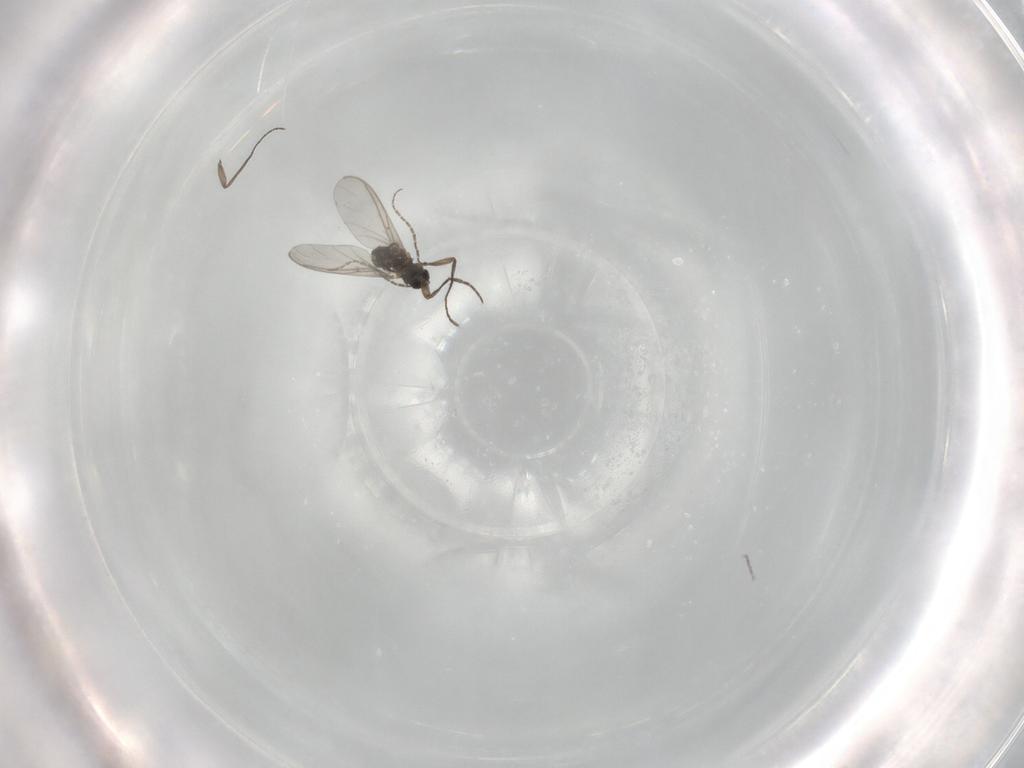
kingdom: Animalia
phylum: Arthropoda
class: Insecta
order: Diptera
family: Sciaridae
